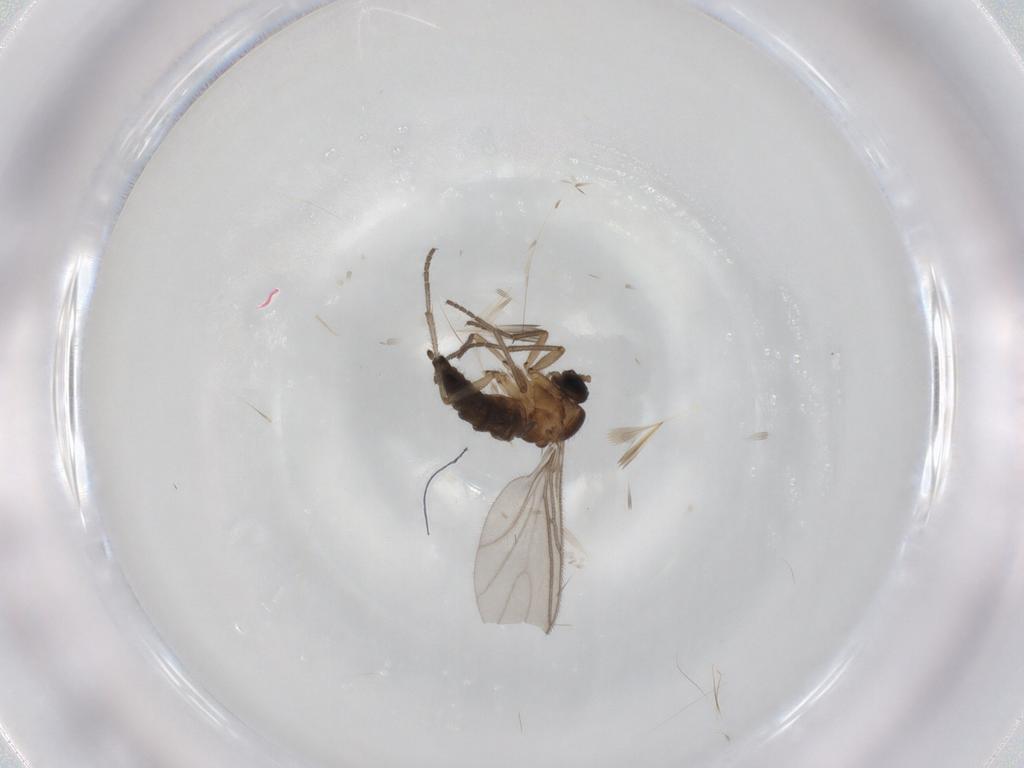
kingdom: Animalia
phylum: Arthropoda
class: Insecta
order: Diptera
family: Sciaridae
